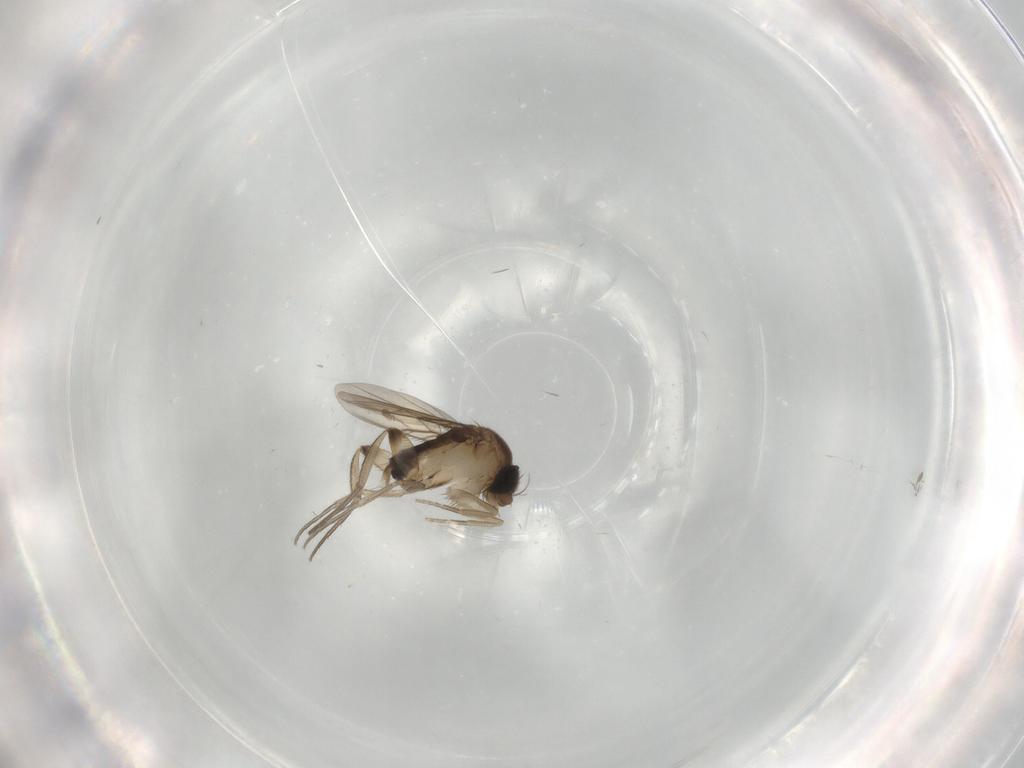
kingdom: Animalia
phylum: Arthropoda
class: Insecta
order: Diptera
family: Phoridae
